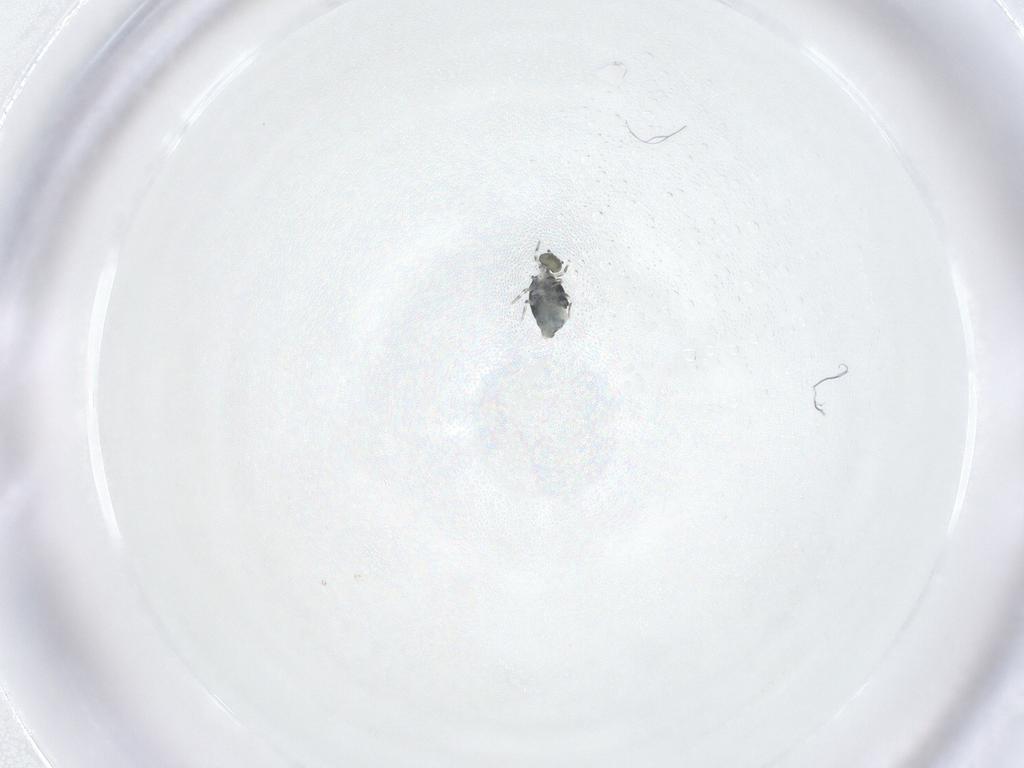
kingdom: Animalia
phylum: Arthropoda
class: Collembola
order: Symphypleona
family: Katiannidae
